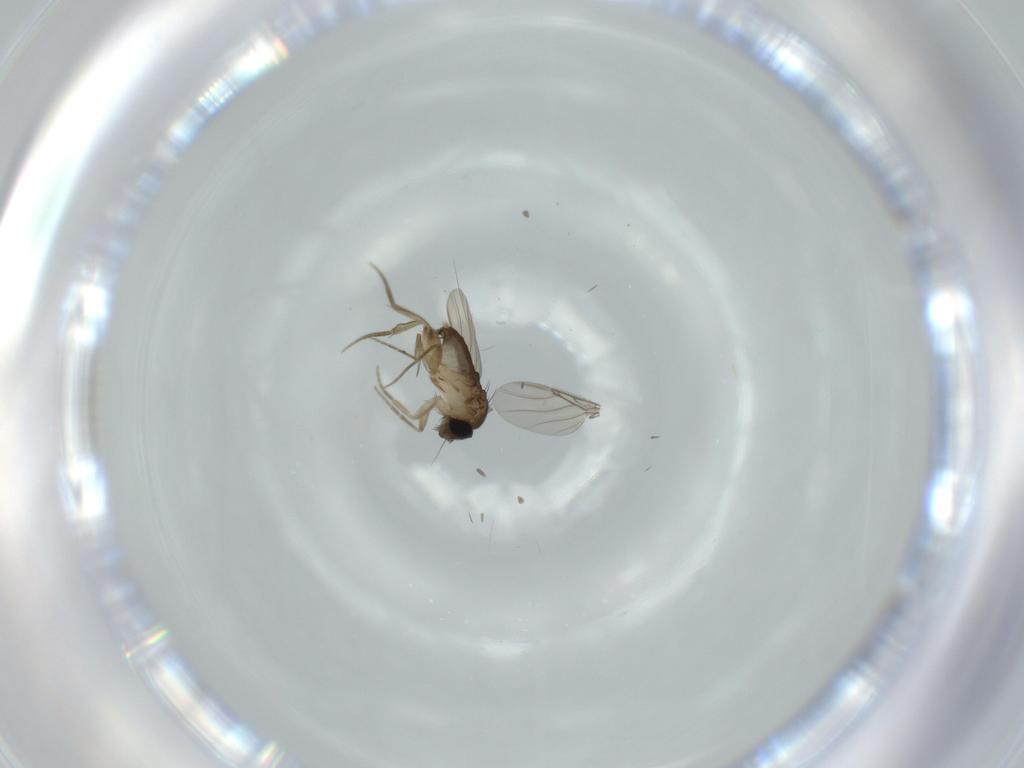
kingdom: Animalia
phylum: Arthropoda
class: Insecta
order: Diptera
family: Phoridae
